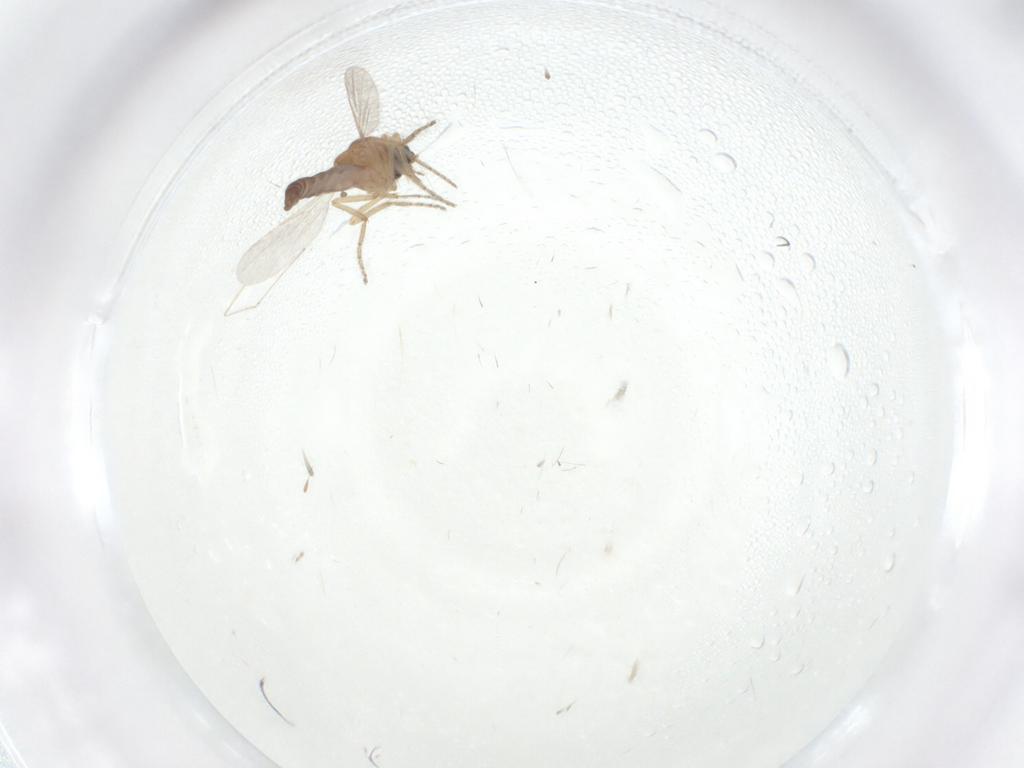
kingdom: Animalia
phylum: Arthropoda
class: Insecta
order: Diptera
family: Ceratopogonidae
